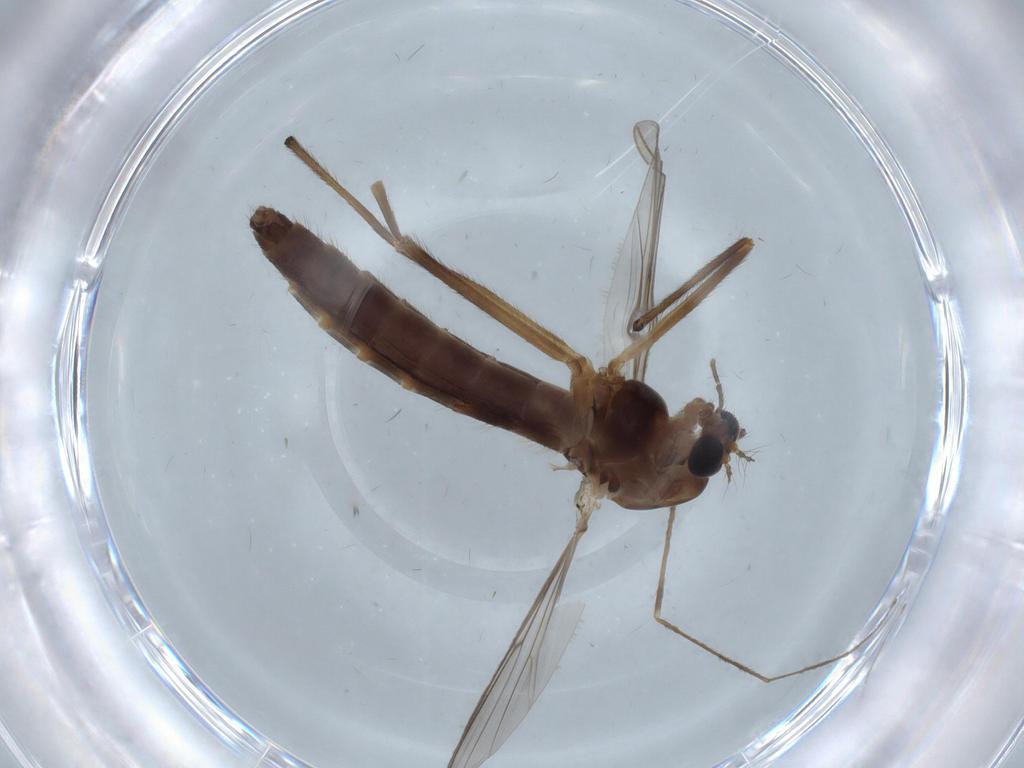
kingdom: Animalia
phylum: Arthropoda
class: Insecta
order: Diptera
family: Chironomidae
